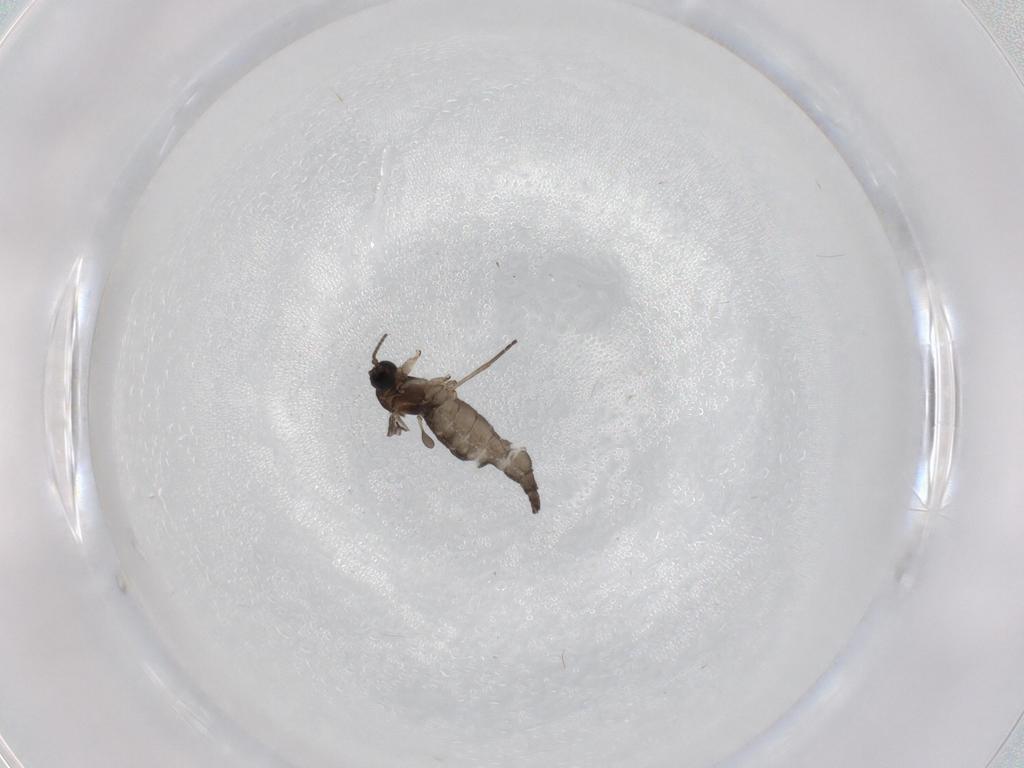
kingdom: Animalia
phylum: Arthropoda
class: Insecta
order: Diptera
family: Sciaridae
